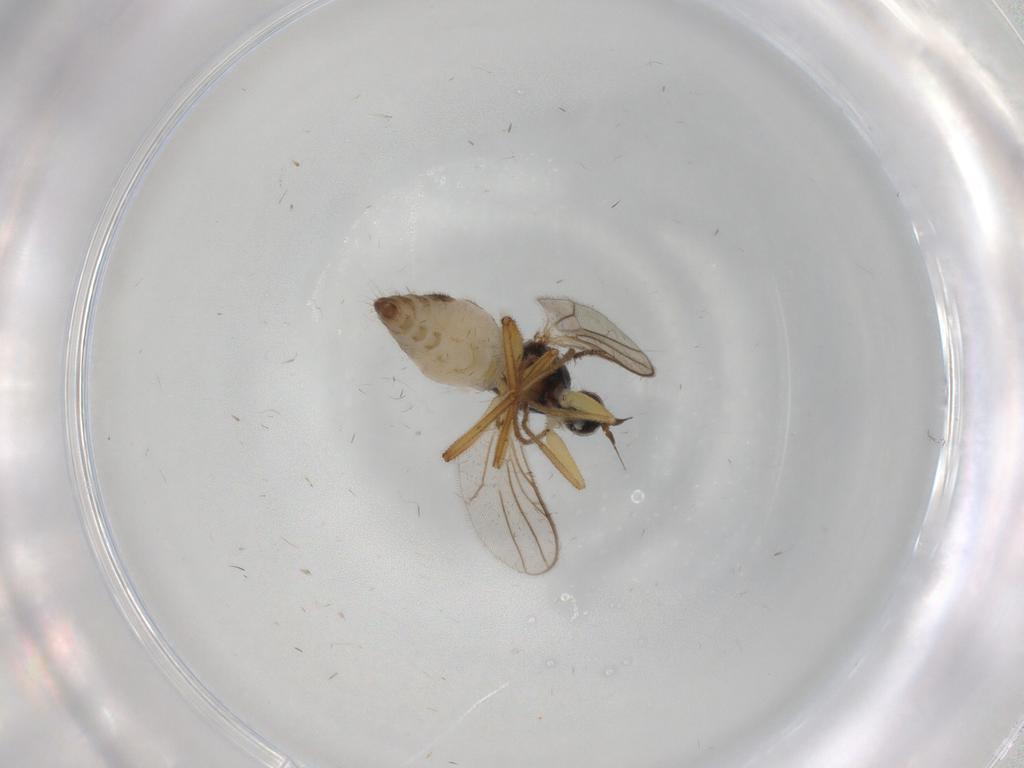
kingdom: Animalia
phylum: Arthropoda
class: Insecta
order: Diptera
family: Hybotidae
